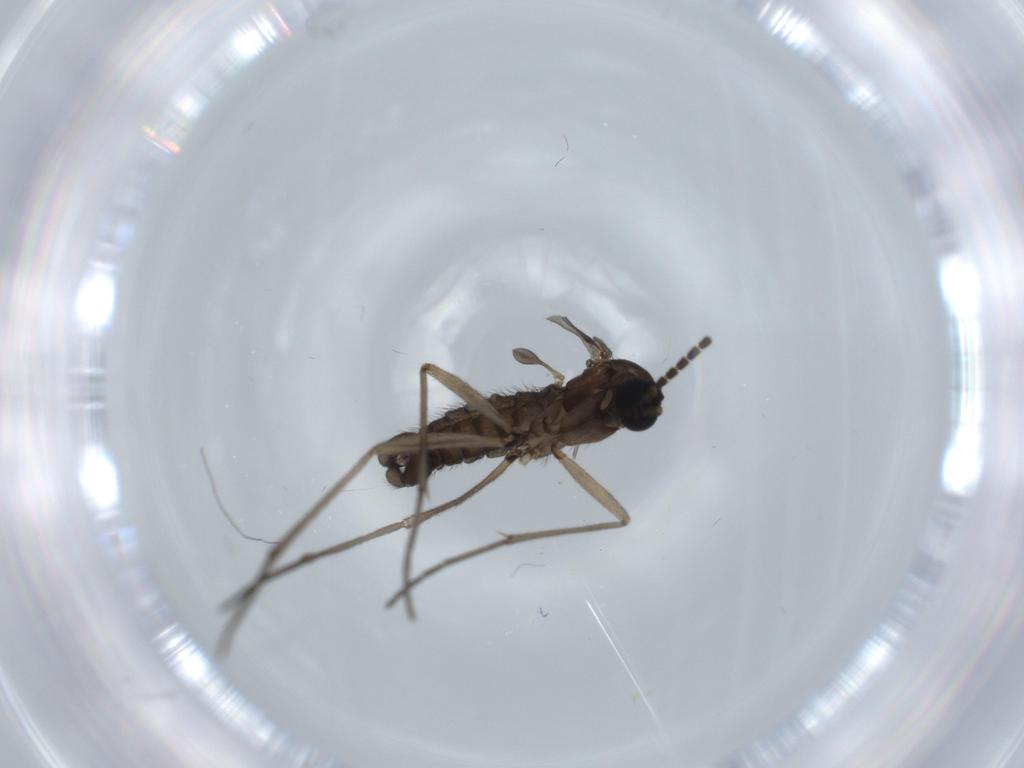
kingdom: Animalia
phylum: Arthropoda
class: Insecta
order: Diptera
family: Sciaridae
